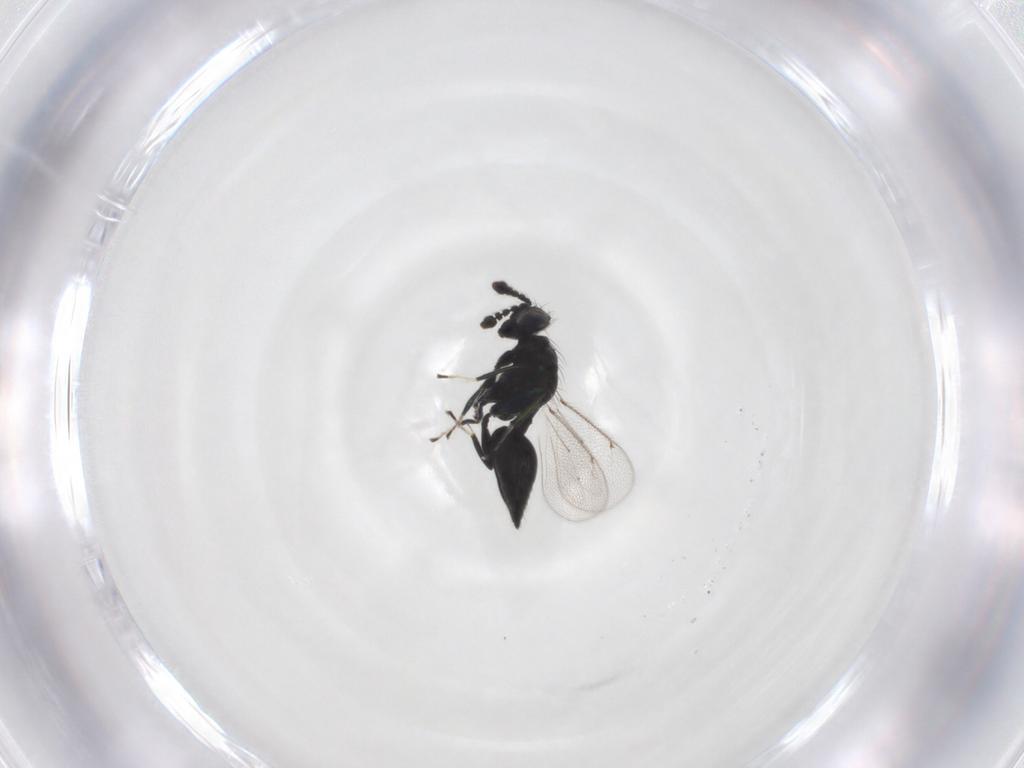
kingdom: Animalia
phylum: Arthropoda
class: Insecta
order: Hymenoptera
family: Eulophidae
